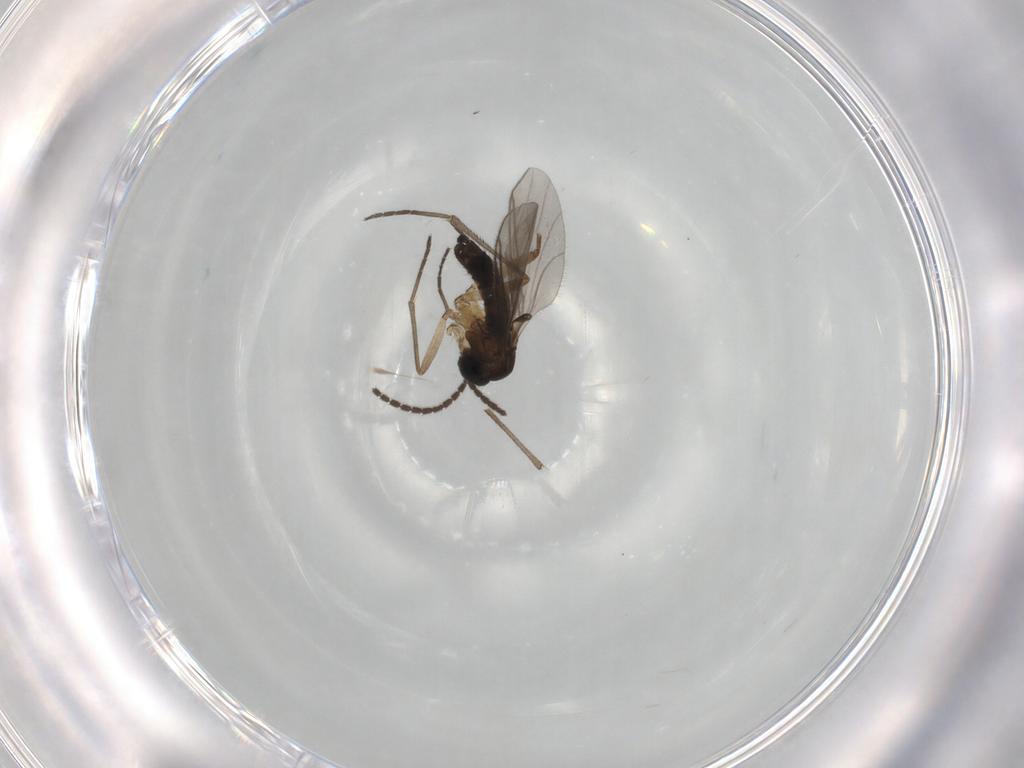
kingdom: Animalia
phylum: Arthropoda
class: Insecta
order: Diptera
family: Sciaridae
